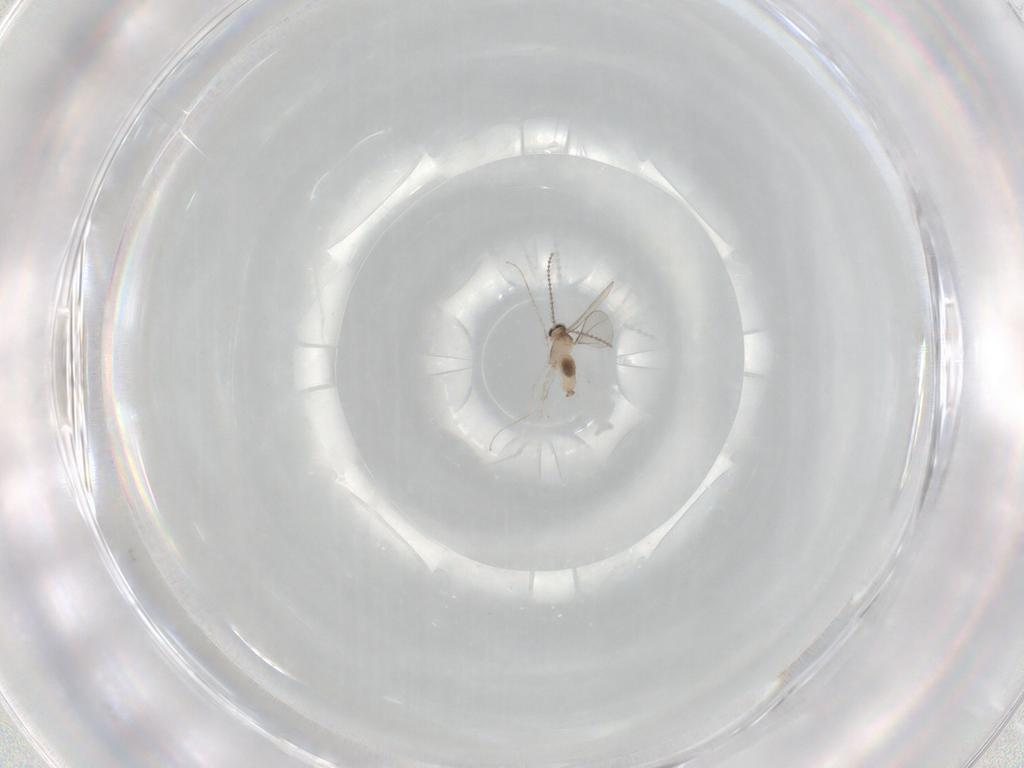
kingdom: Animalia
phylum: Arthropoda
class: Insecta
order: Diptera
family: Cecidomyiidae
